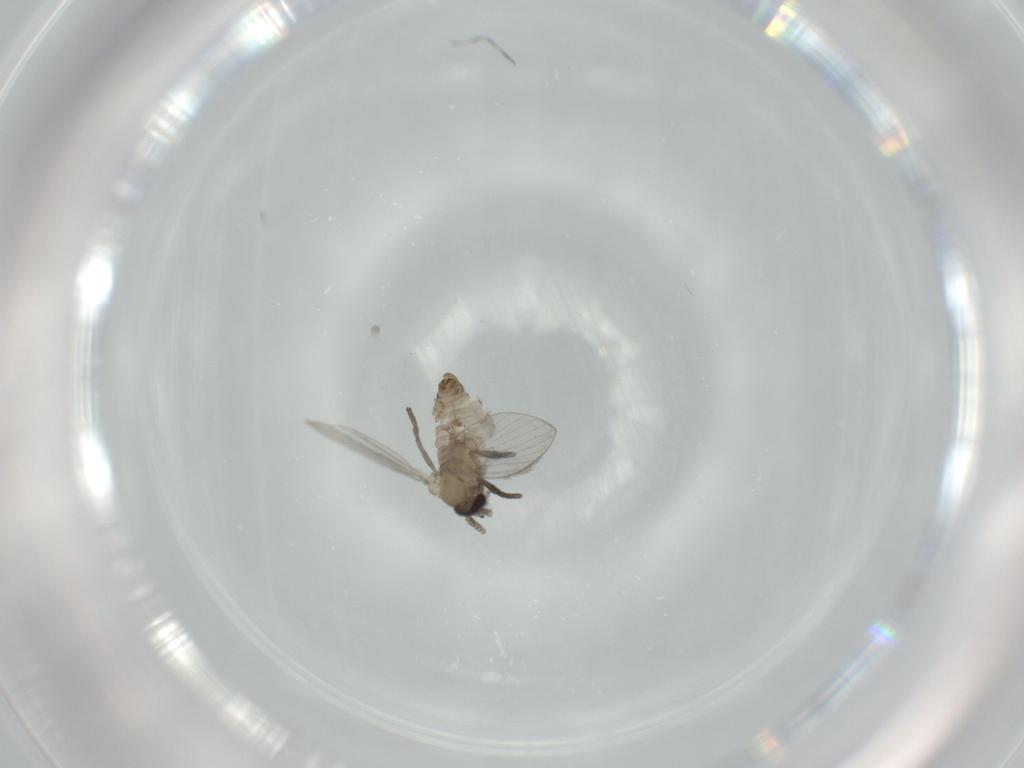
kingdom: Animalia
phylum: Arthropoda
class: Insecta
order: Diptera
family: Psychodidae
